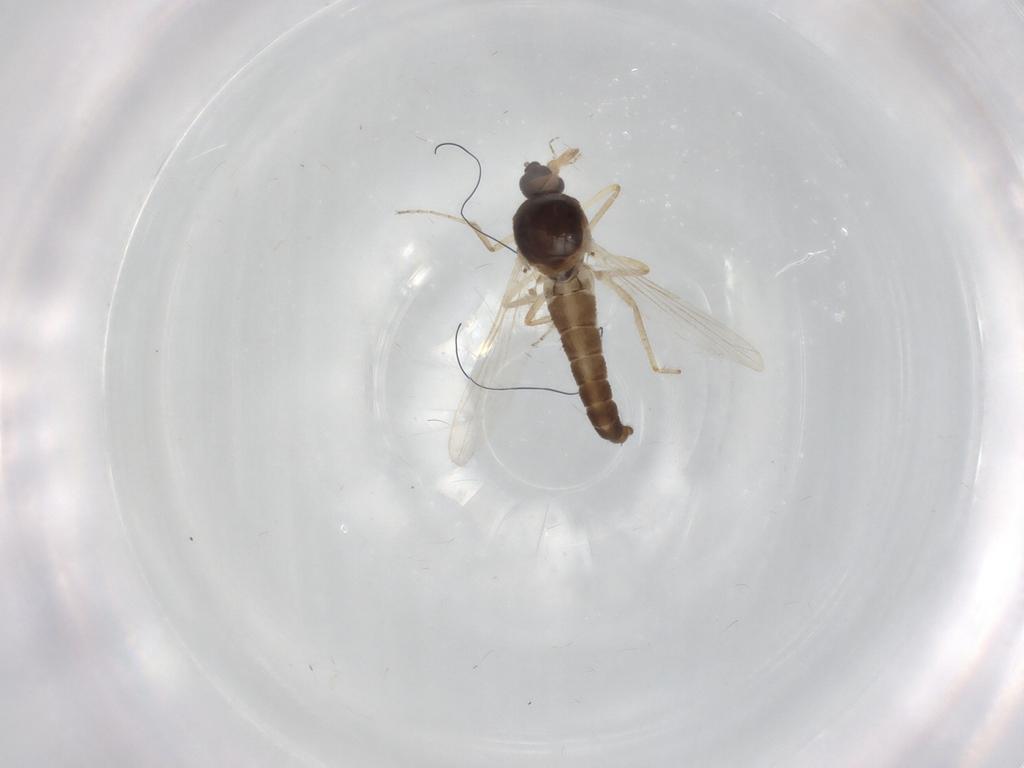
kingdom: Animalia
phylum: Arthropoda
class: Insecta
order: Diptera
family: Ceratopogonidae
